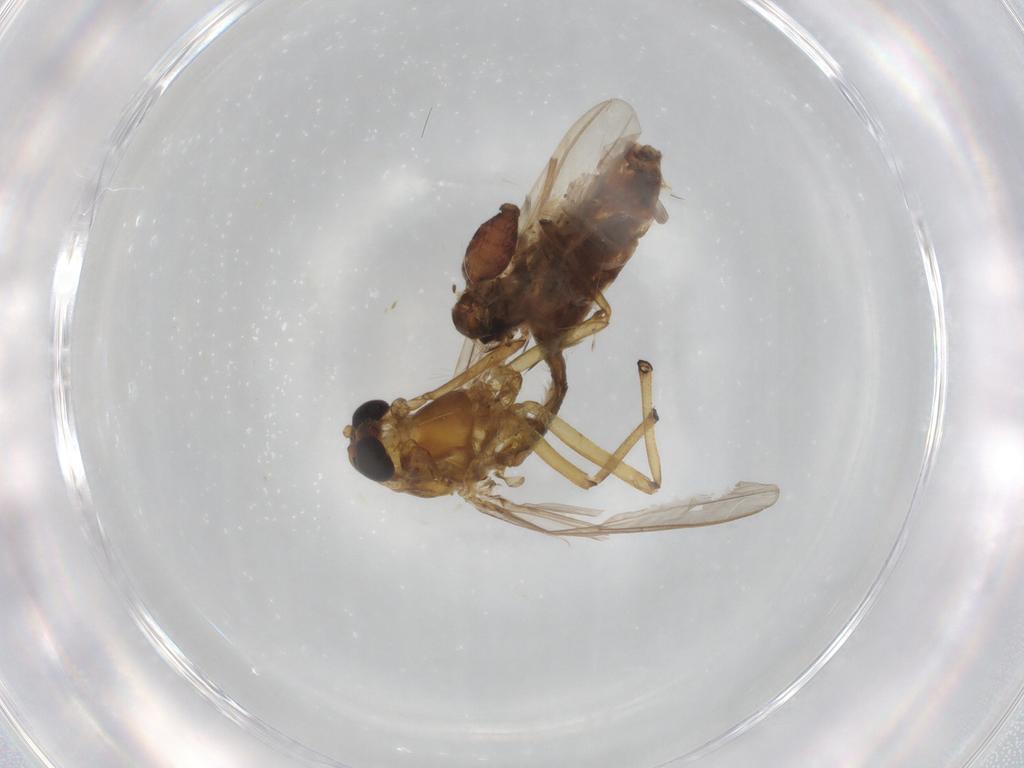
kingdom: Animalia
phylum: Arthropoda
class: Insecta
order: Diptera
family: Chironomidae
